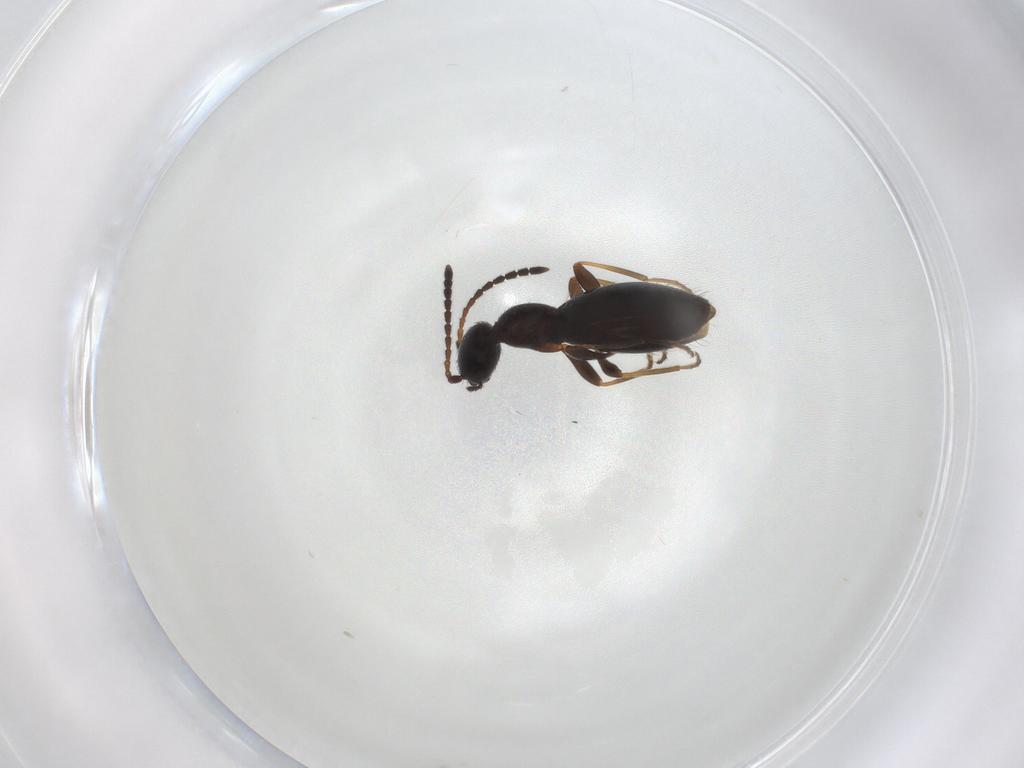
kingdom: Animalia
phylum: Arthropoda
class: Insecta
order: Coleoptera
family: Anthicidae
